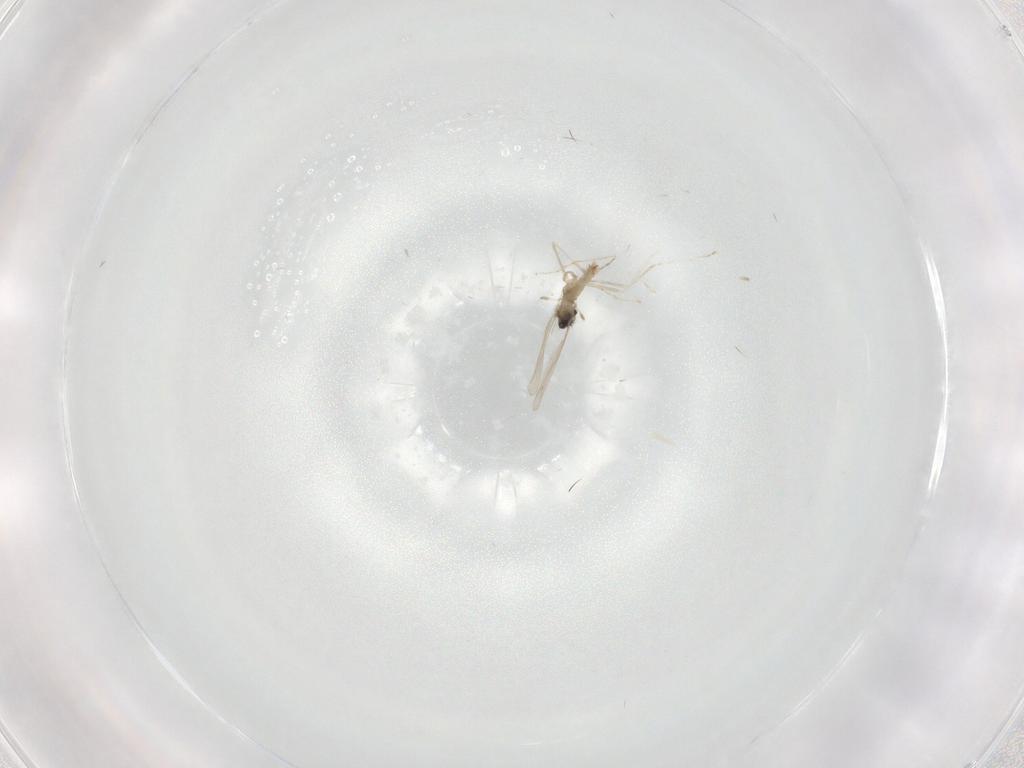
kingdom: Animalia
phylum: Arthropoda
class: Insecta
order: Diptera
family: Cecidomyiidae
